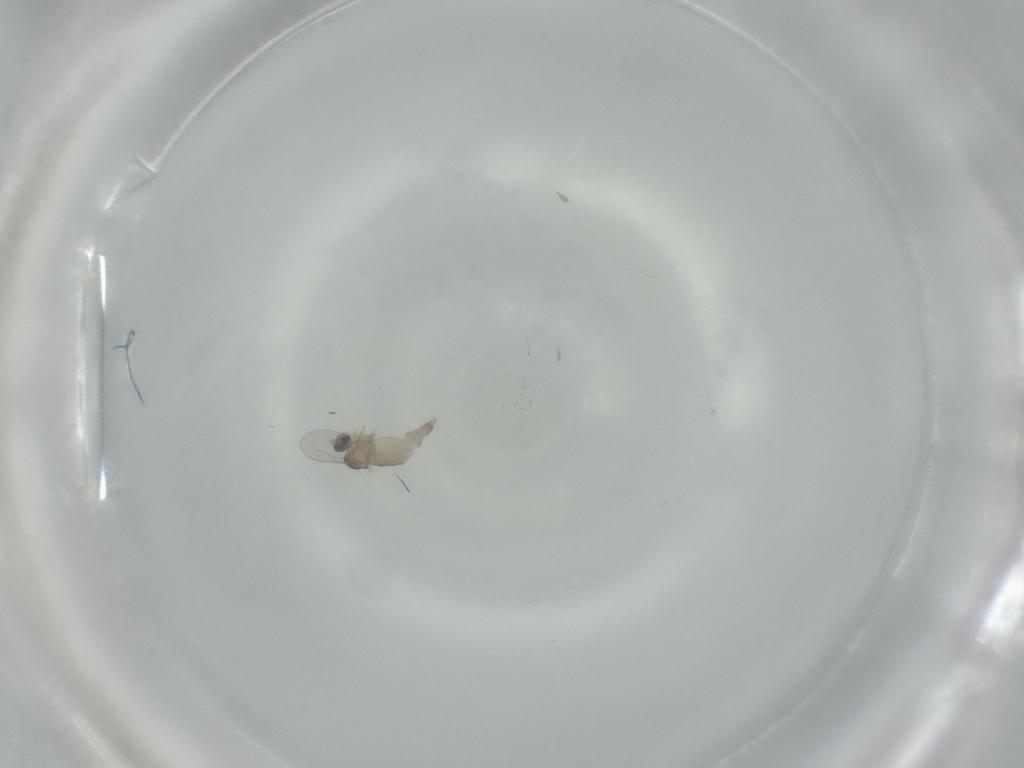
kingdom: Animalia
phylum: Arthropoda
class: Insecta
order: Diptera
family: Cecidomyiidae
